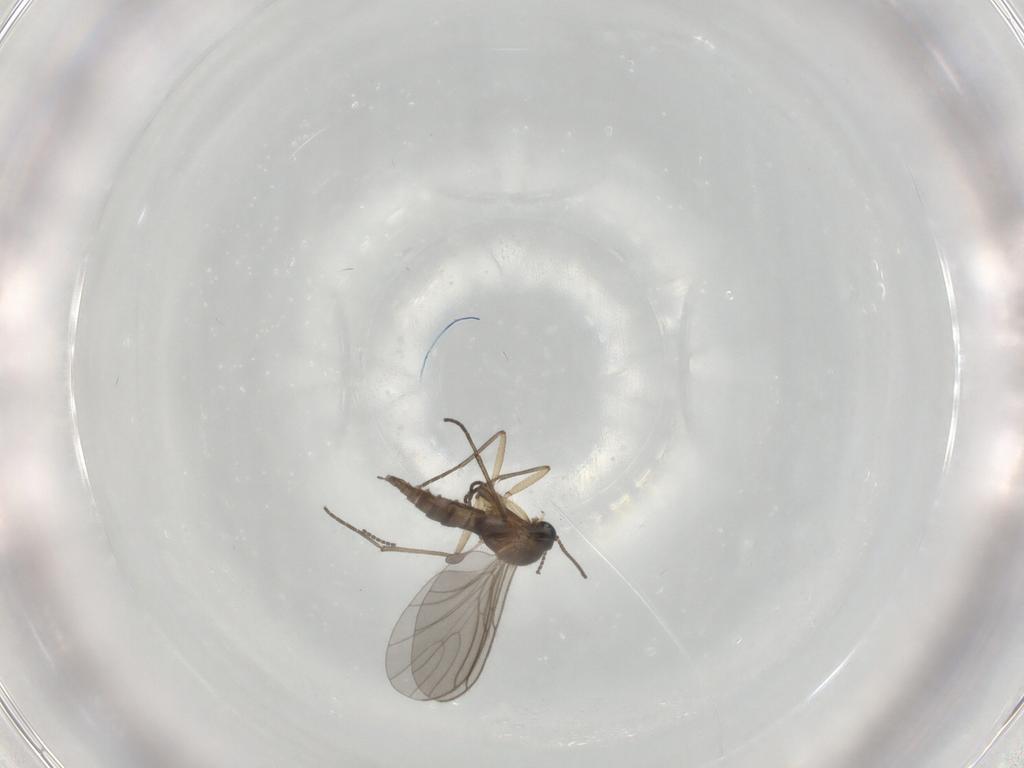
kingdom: Animalia
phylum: Arthropoda
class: Insecta
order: Diptera
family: Sciaridae
